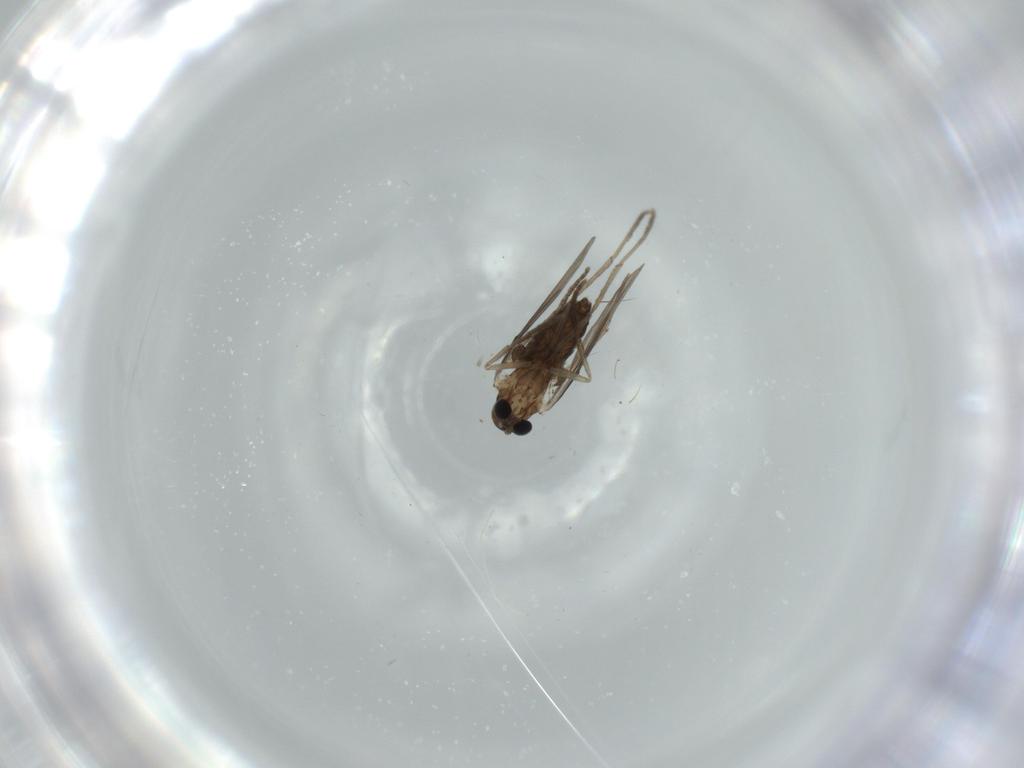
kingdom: Animalia
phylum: Arthropoda
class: Insecta
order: Diptera
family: Psychodidae
